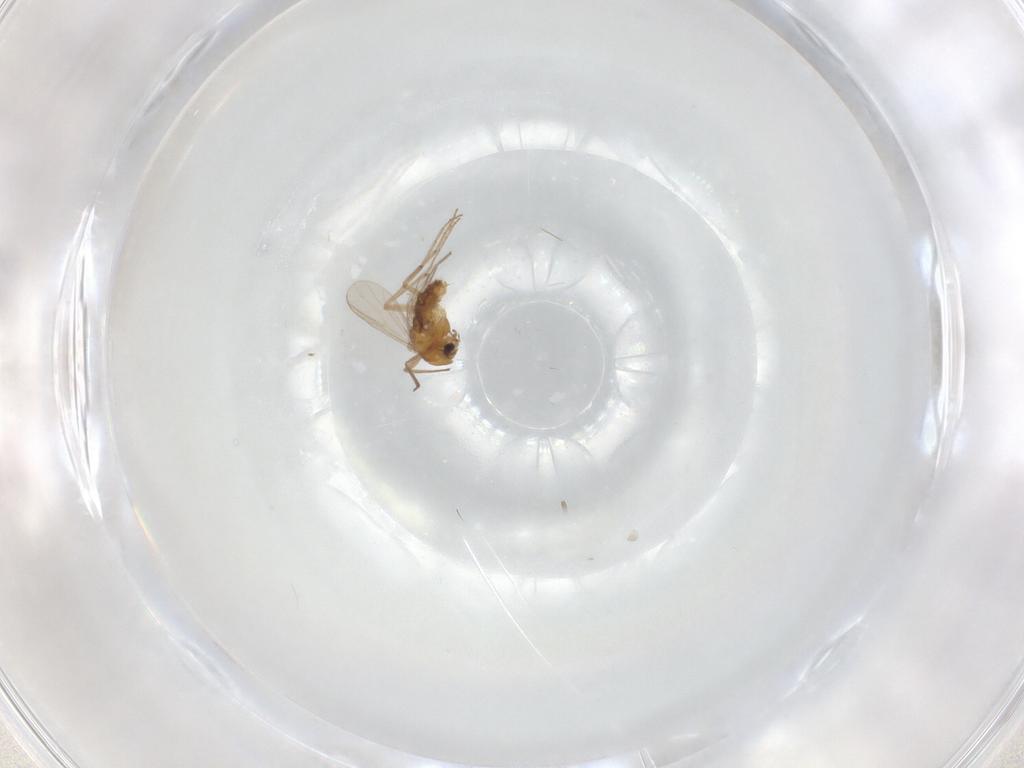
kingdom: Animalia
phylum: Arthropoda
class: Insecta
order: Diptera
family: Chironomidae
